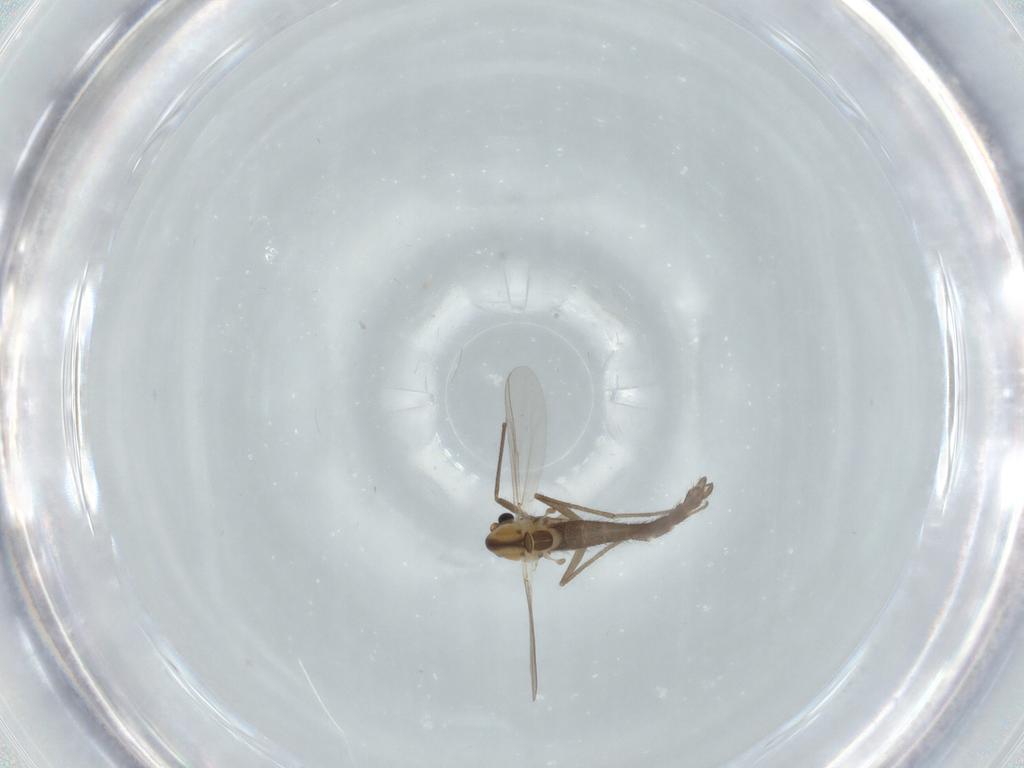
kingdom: Animalia
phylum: Arthropoda
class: Insecta
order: Diptera
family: Chironomidae
